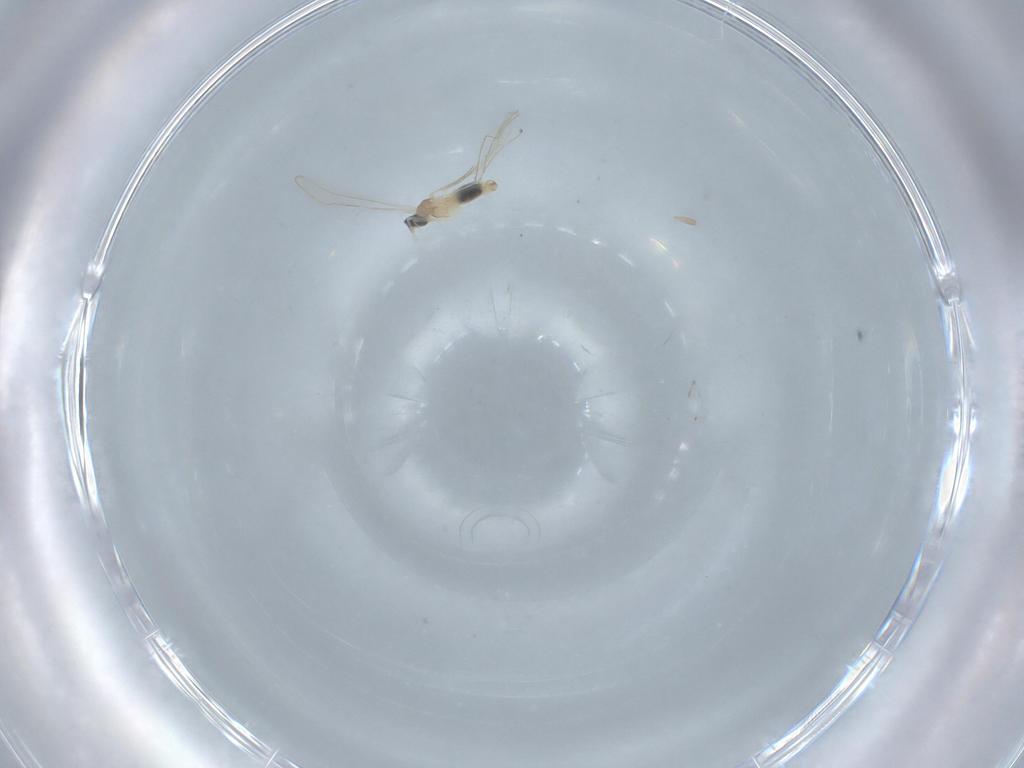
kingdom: Animalia
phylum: Arthropoda
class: Insecta
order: Diptera
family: Cecidomyiidae
